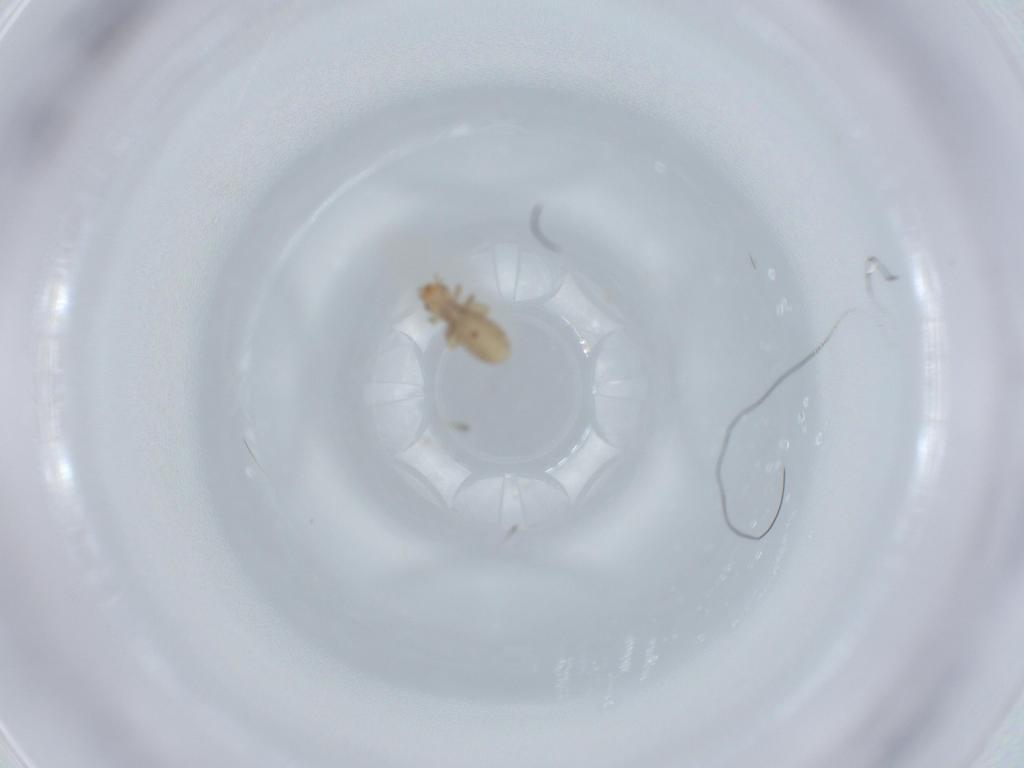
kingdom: Animalia
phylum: Arthropoda
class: Insecta
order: Psocodea
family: Liposcelididae
